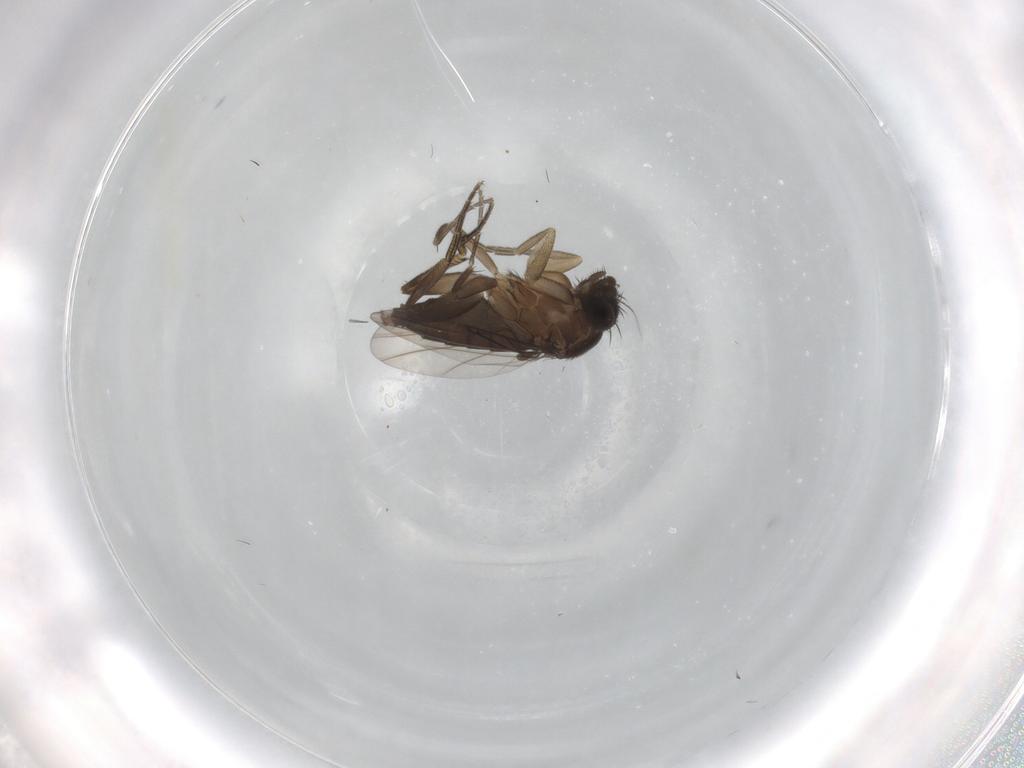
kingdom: Animalia
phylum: Arthropoda
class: Insecta
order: Diptera
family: Phoridae
